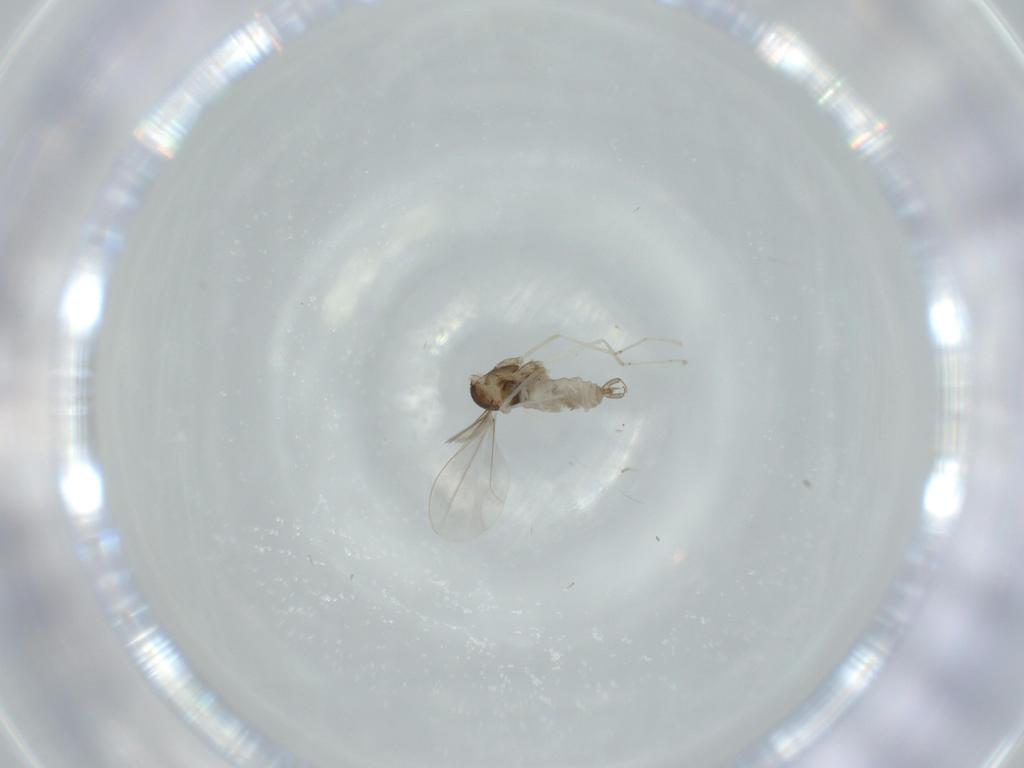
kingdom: Animalia
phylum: Arthropoda
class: Insecta
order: Diptera
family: Cecidomyiidae
